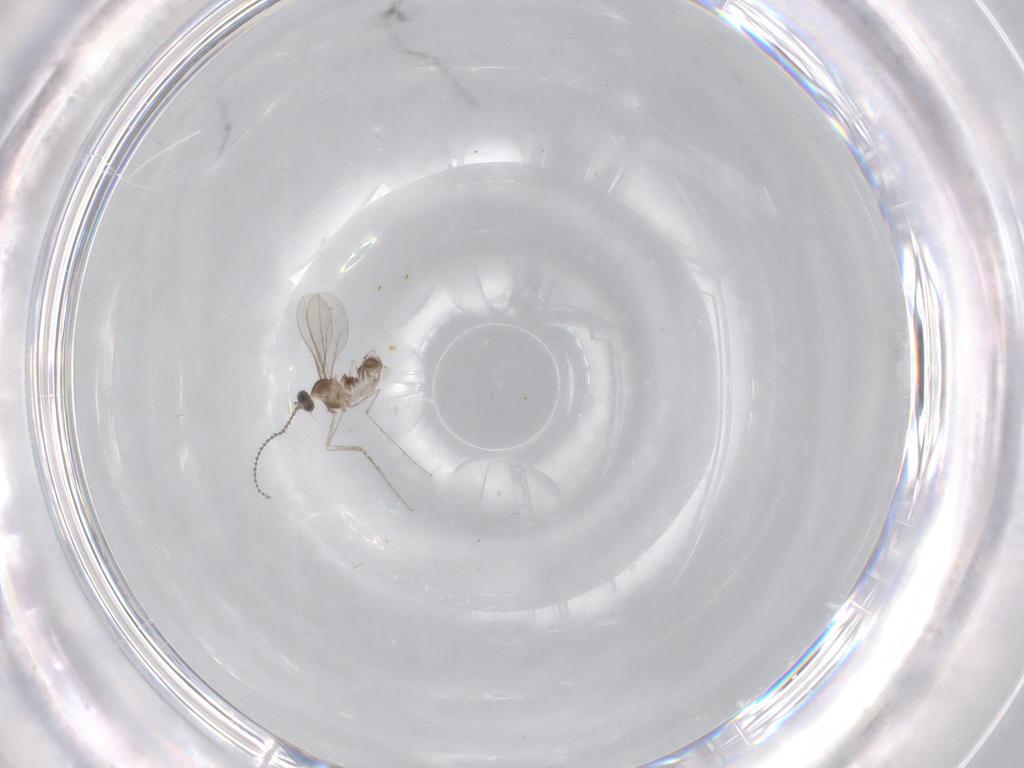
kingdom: Animalia
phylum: Arthropoda
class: Insecta
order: Diptera
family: Cecidomyiidae
